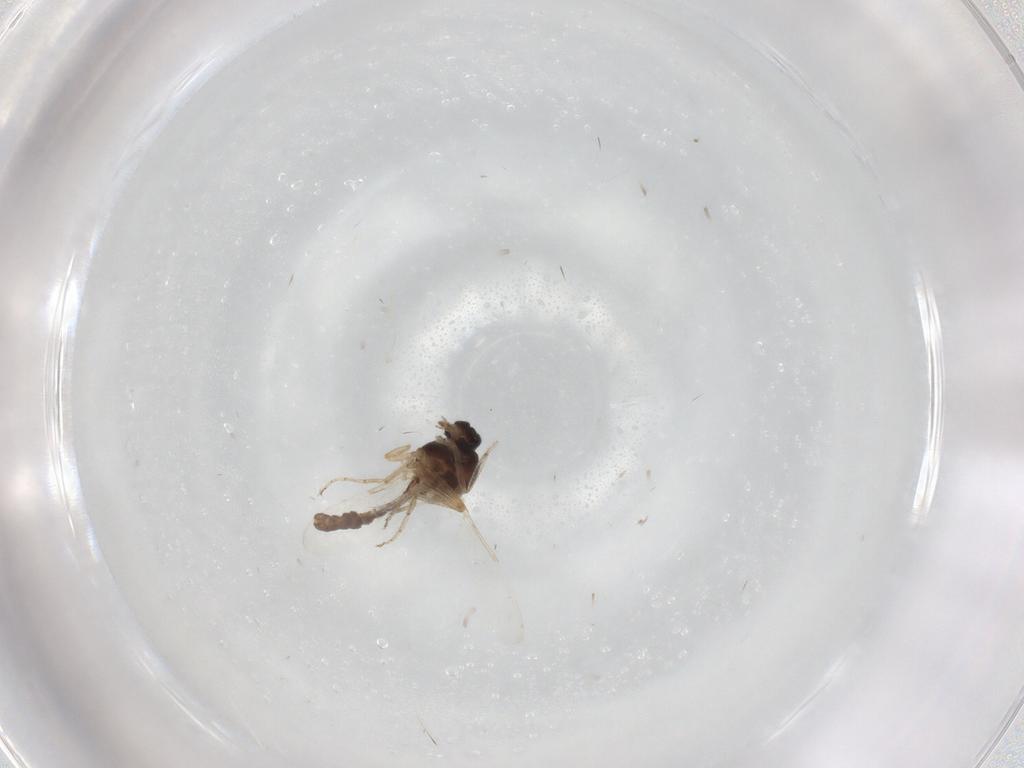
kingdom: Animalia
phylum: Arthropoda
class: Insecta
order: Diptera
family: Ceratopogonidae
